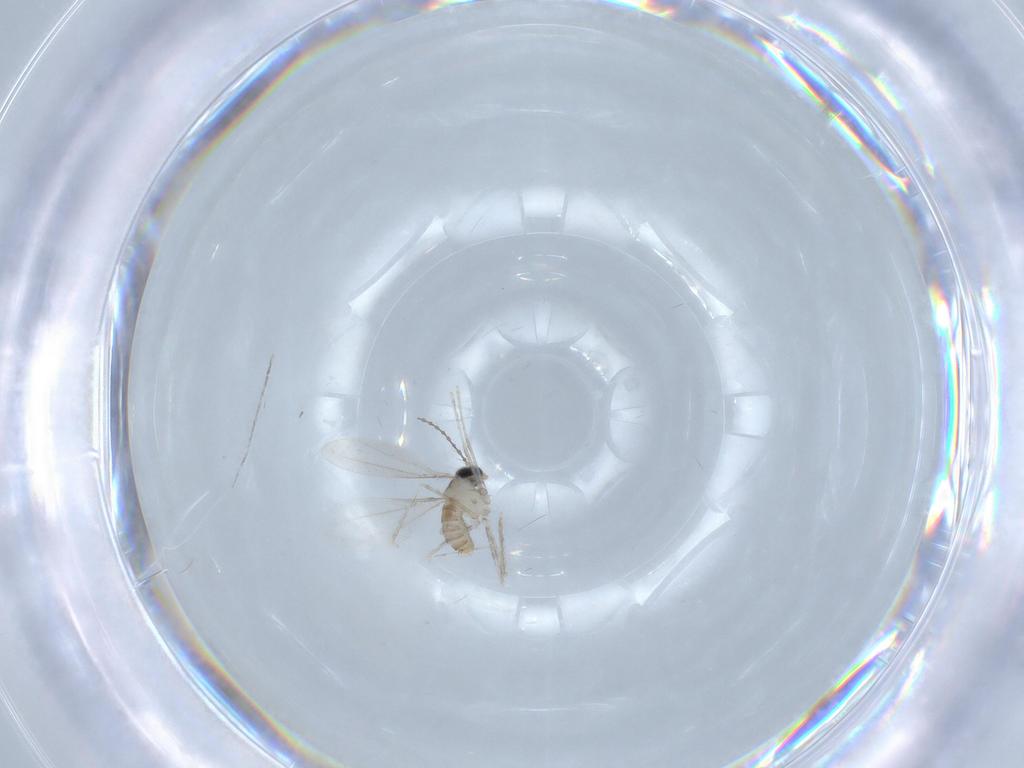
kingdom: Animalia
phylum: Arthropoda
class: Insecta
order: Diptera
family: Cecidomyiidae
